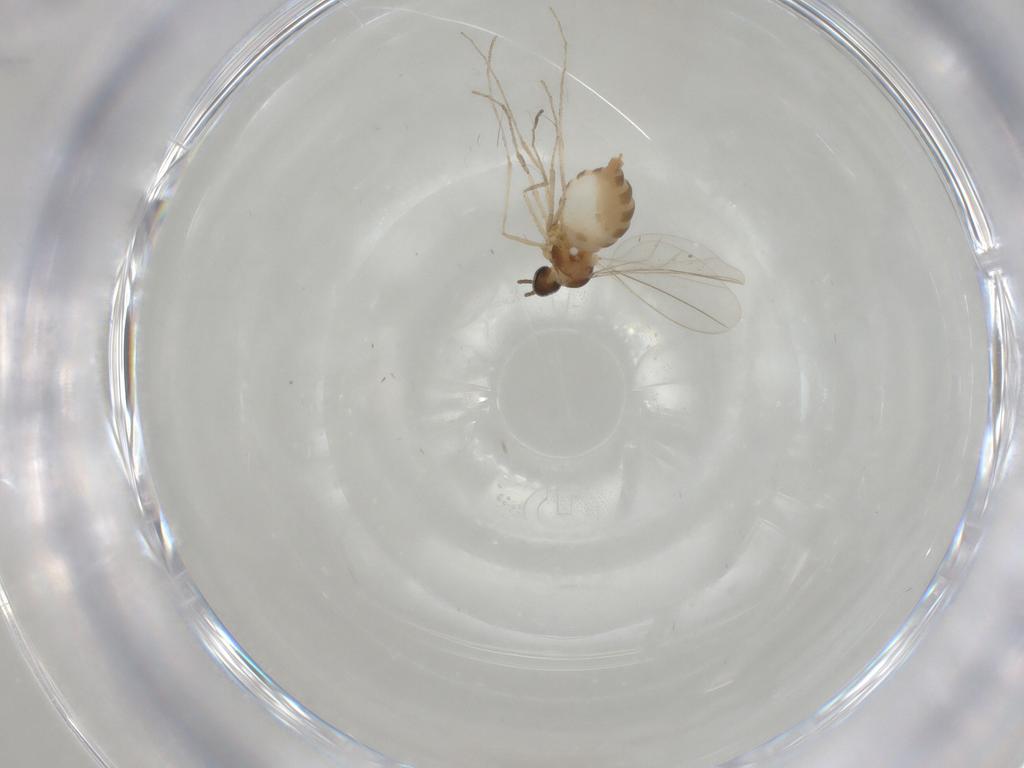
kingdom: Animalia
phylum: Arthropoda
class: Insecta
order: Diptera
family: Cecidomyiidae
